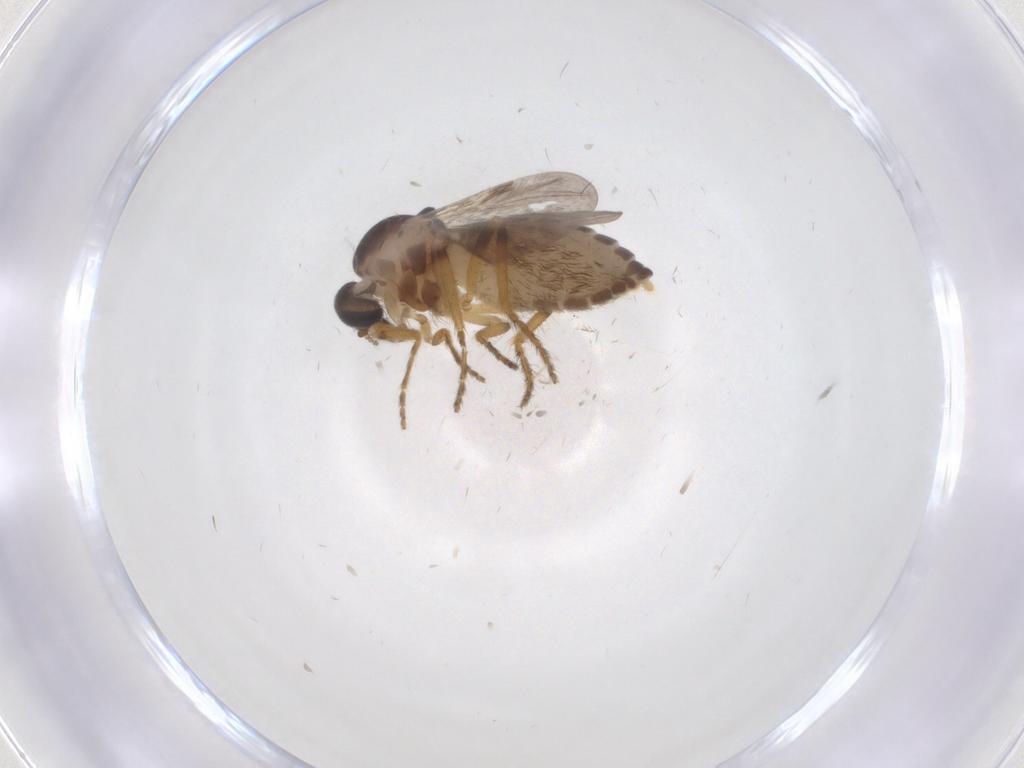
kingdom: Animalia
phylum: Arthropoda
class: Insecta
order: Diptera
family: Ceratopogonidae
